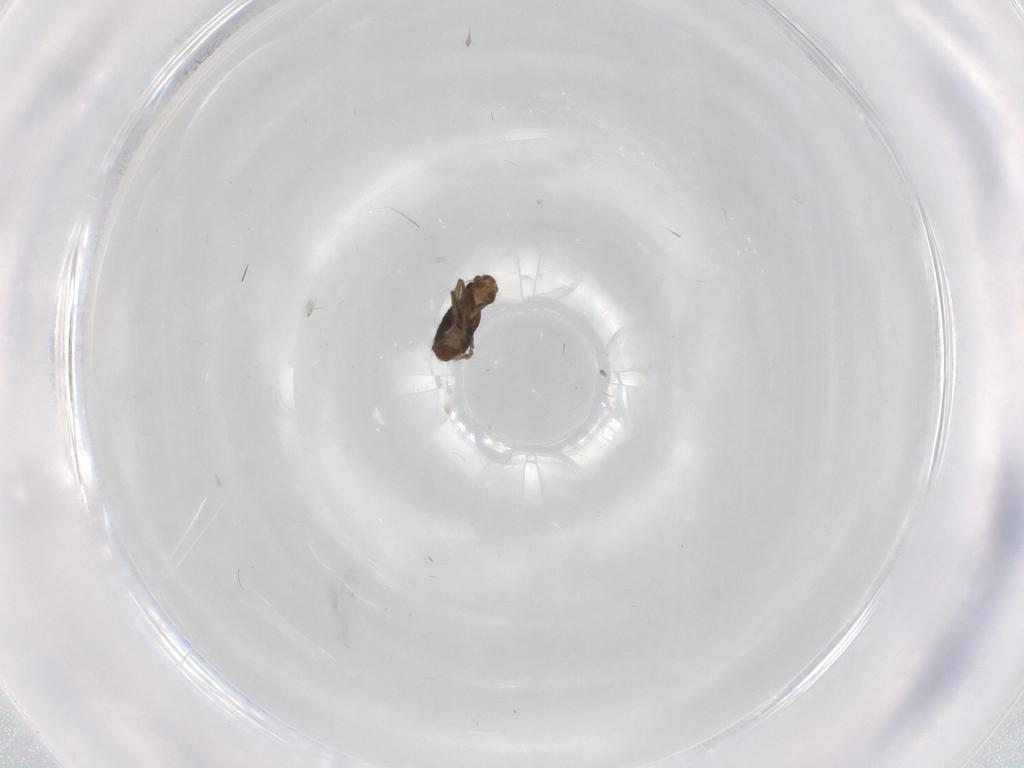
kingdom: Animalia
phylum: Arthropoda
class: Insecta
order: Diptera
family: Phoridae
